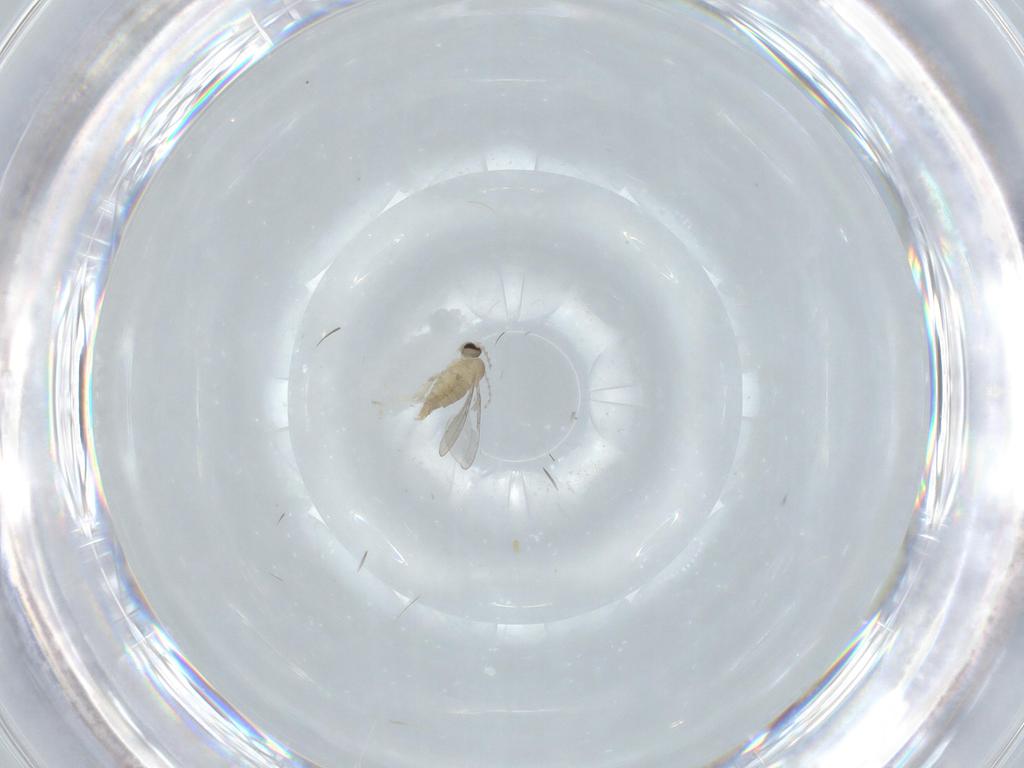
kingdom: Animalia
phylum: Arthropoda
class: Insecta
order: Diptera
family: Cecidomyiidae
